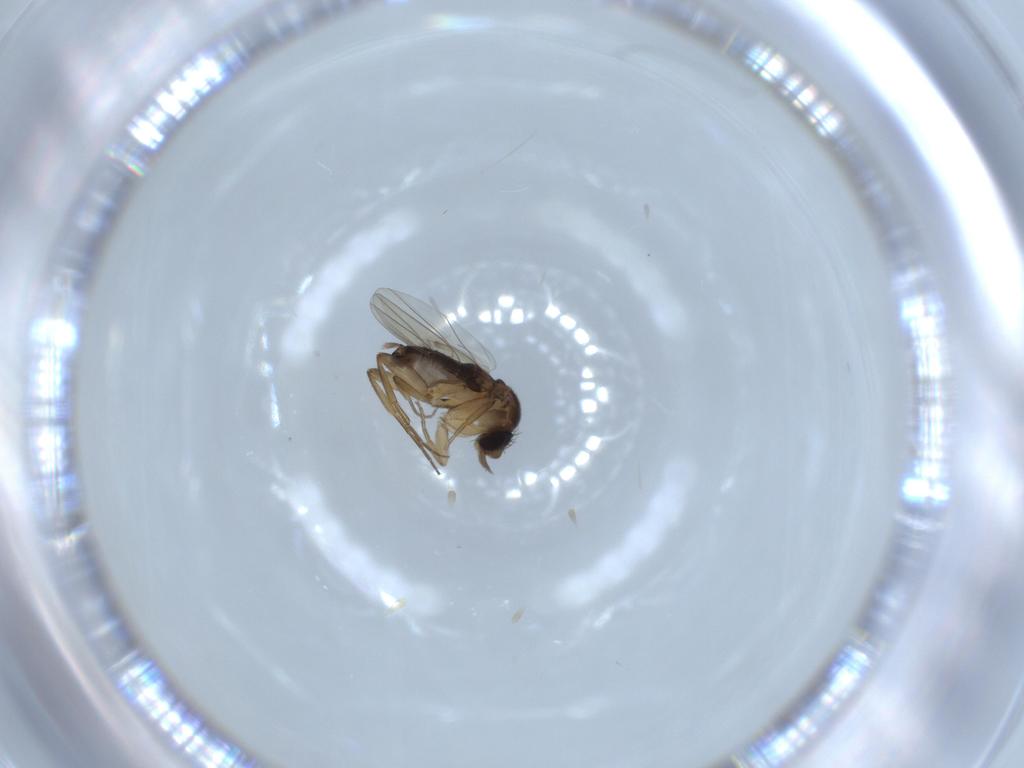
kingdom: Animalia
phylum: Arthropoda
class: Insecta
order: Diptera
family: Phoridae
